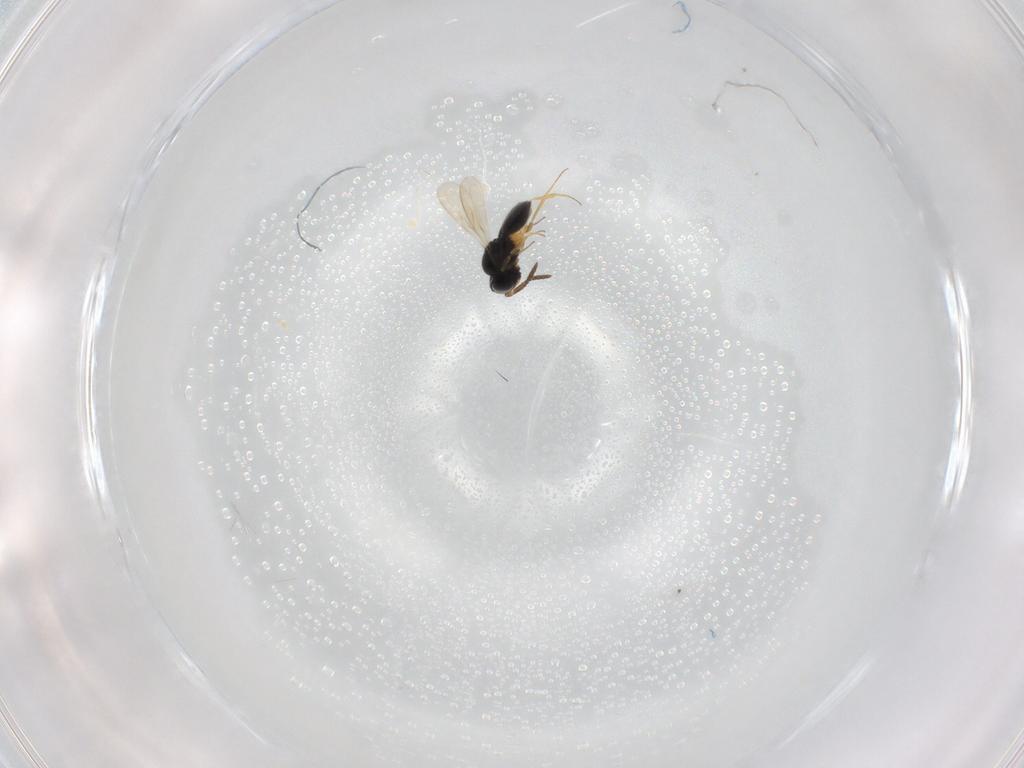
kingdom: Animalia
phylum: Arthropoda
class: Insecta
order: Hymenoptera
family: Scelionidae
